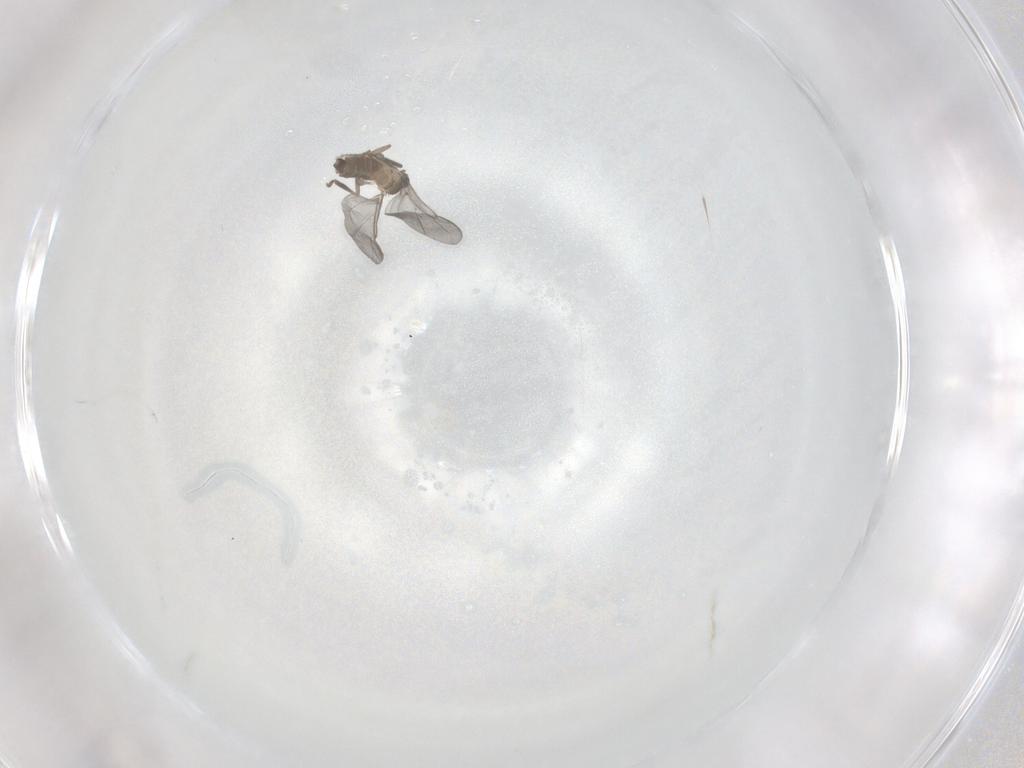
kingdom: Animalia
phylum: Arthropoda
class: Insecta
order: Diptera
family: Phoridae
